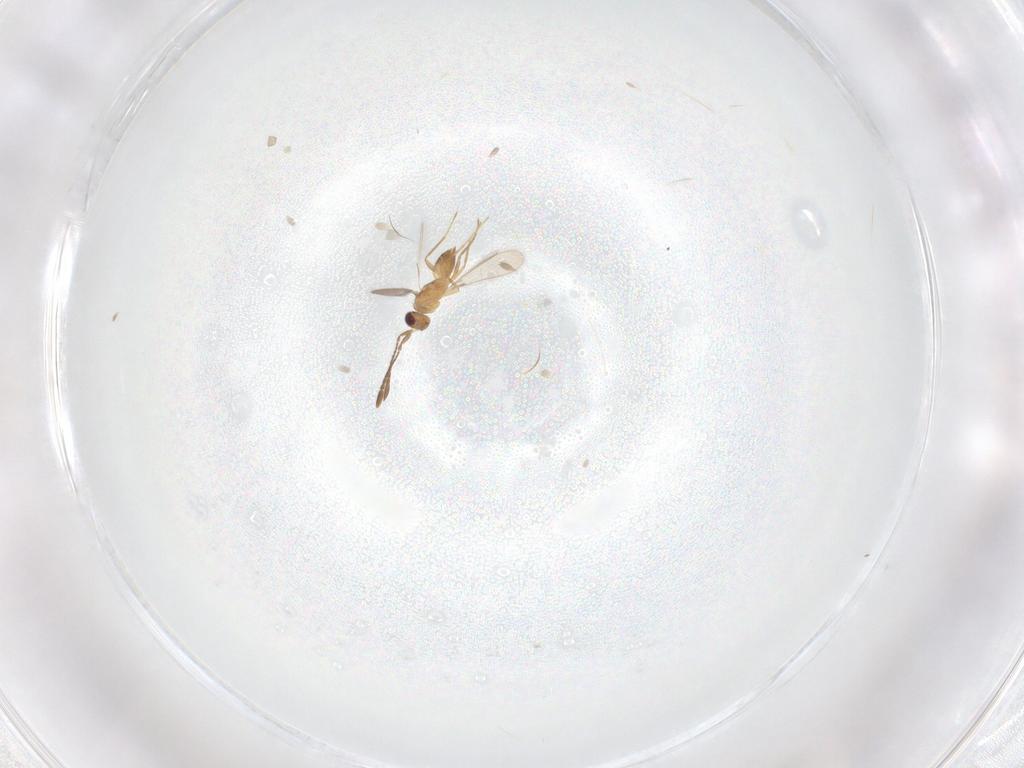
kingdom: Animalia
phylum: Arthropoda
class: Insecta
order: Hymenoptera
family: Mymaridae
